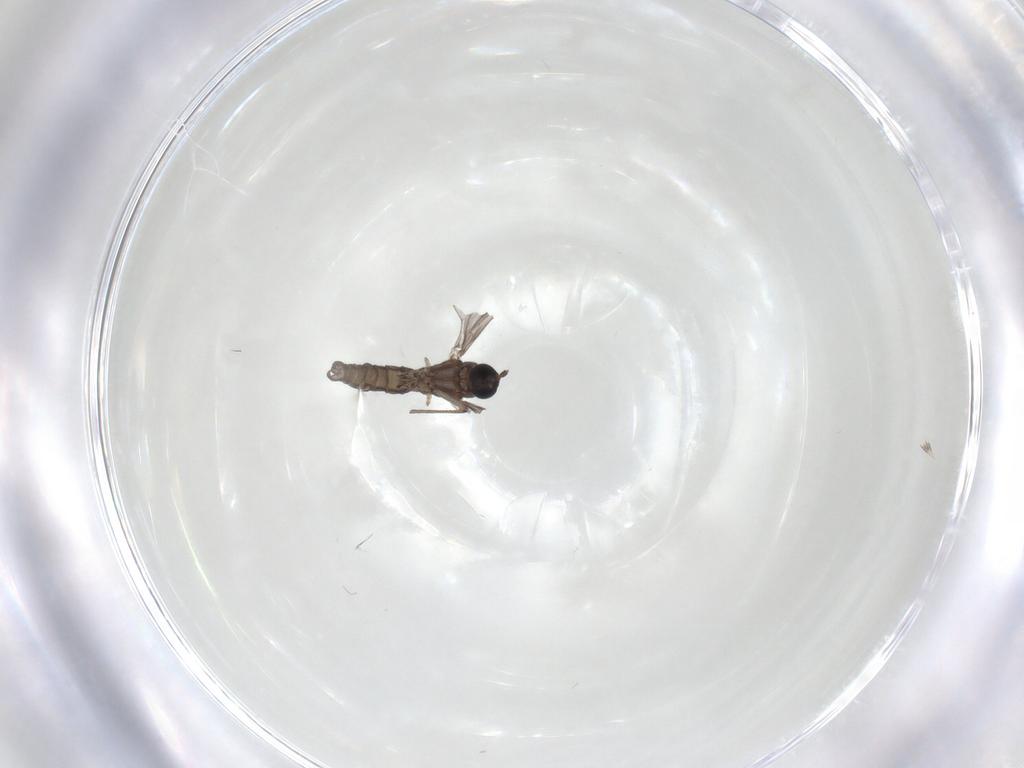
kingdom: Animalia
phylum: Arthropoda
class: Insecta
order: Diptera
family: Sciaridae
